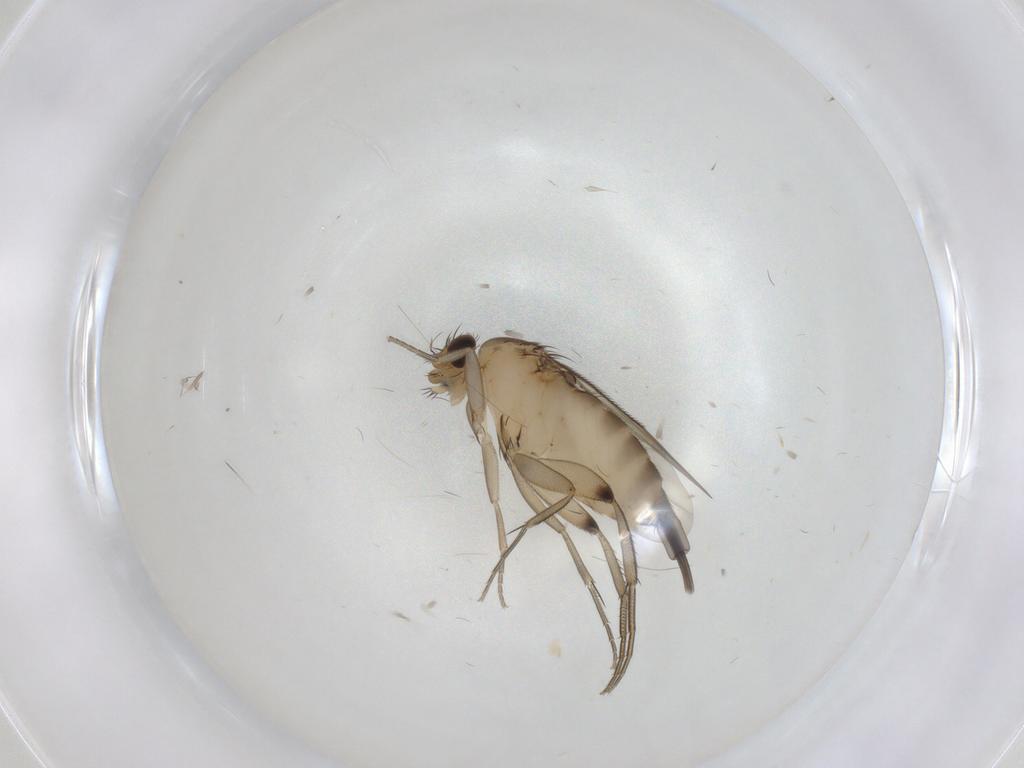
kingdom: Animalia
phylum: Arthropoda
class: Insecta
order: Diptera
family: Phoridae
